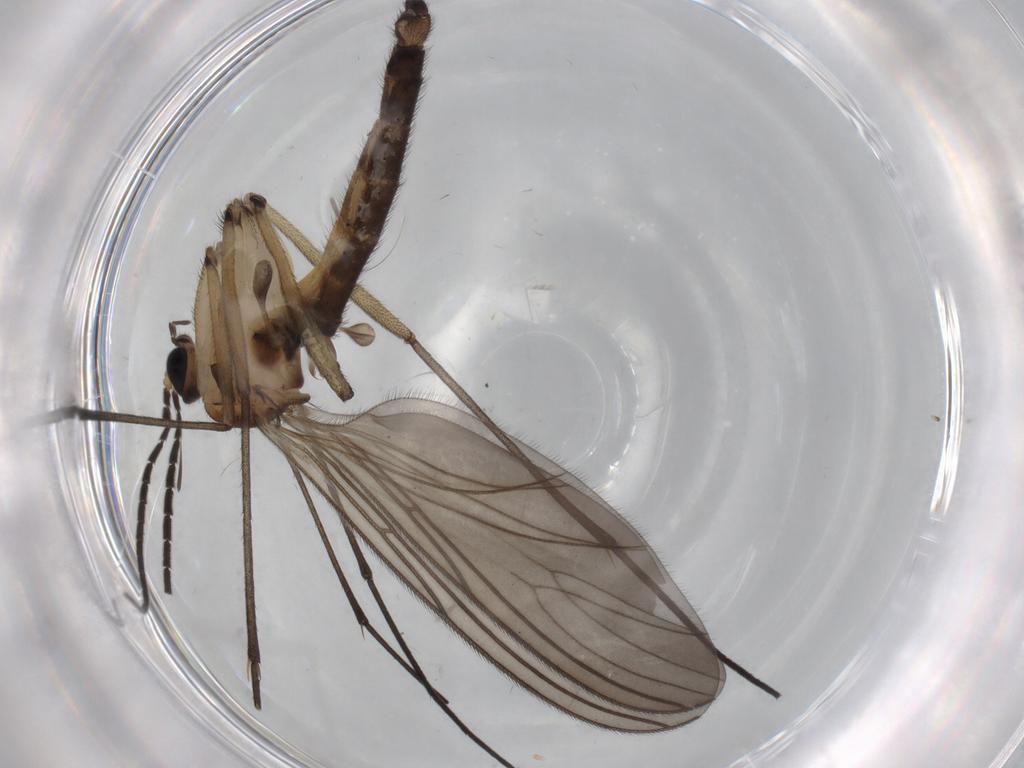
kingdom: Animalia
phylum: Arthropoda
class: Insecta
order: Diptera
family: Sciaridae
